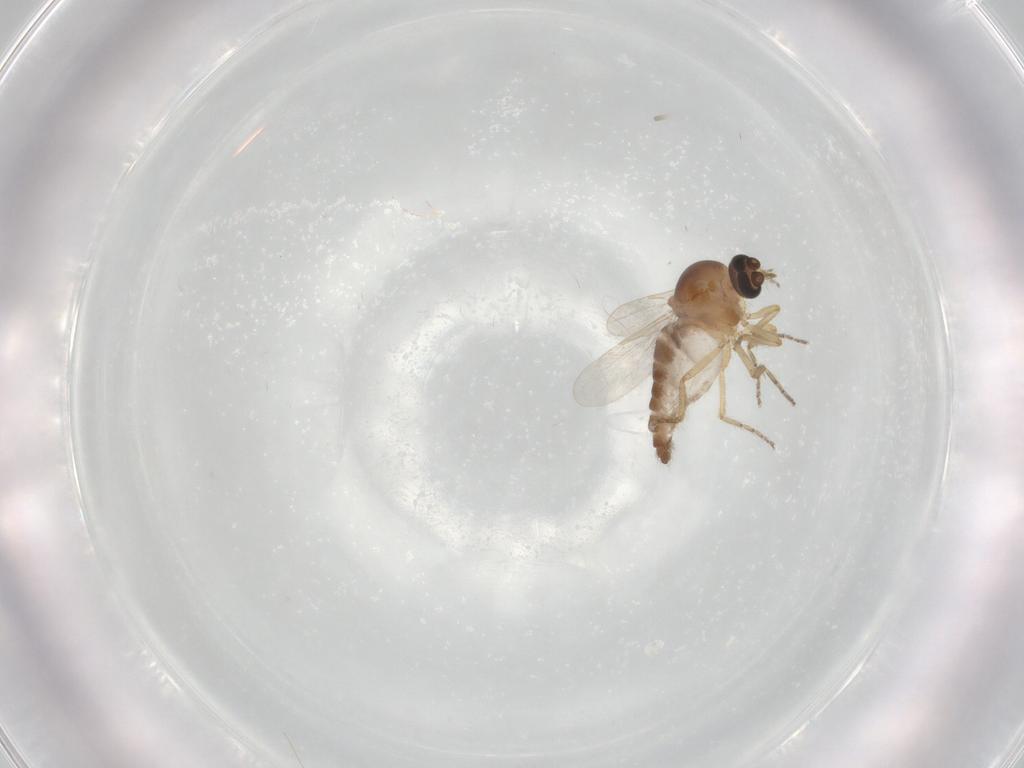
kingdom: Animalia
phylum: Arthropoda
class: Insecta
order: Diptera
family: Ceratopogonidae
